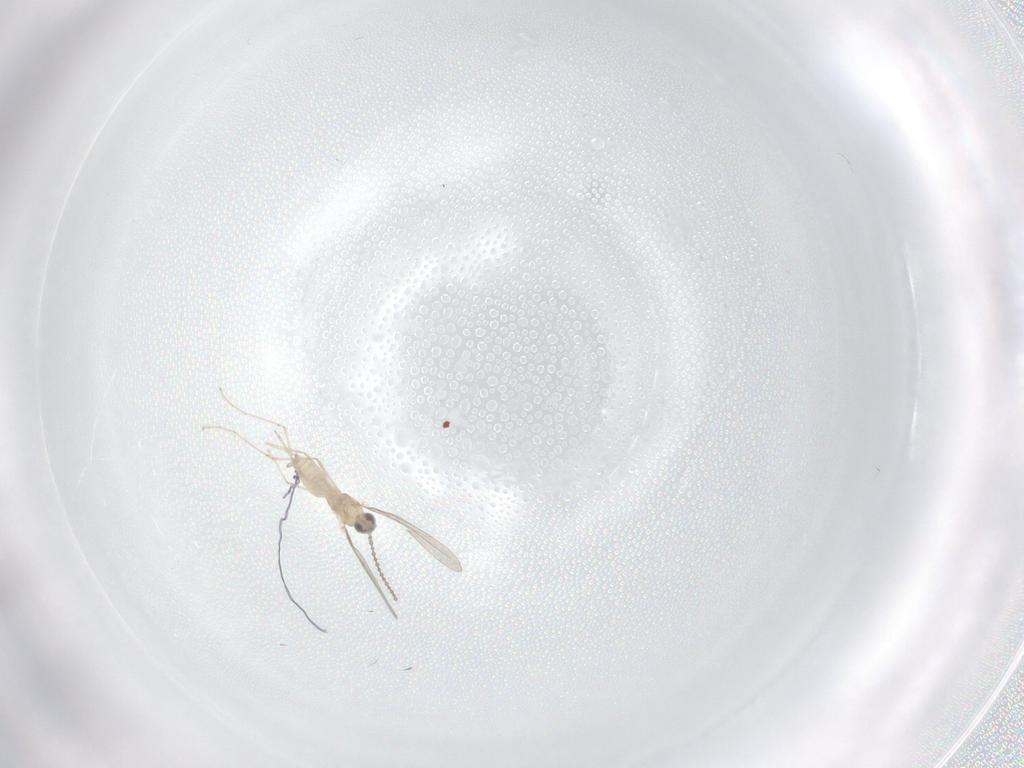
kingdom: Animalia
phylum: Arthropoda
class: Insecta
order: Diptera
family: Cecidomyiidae
